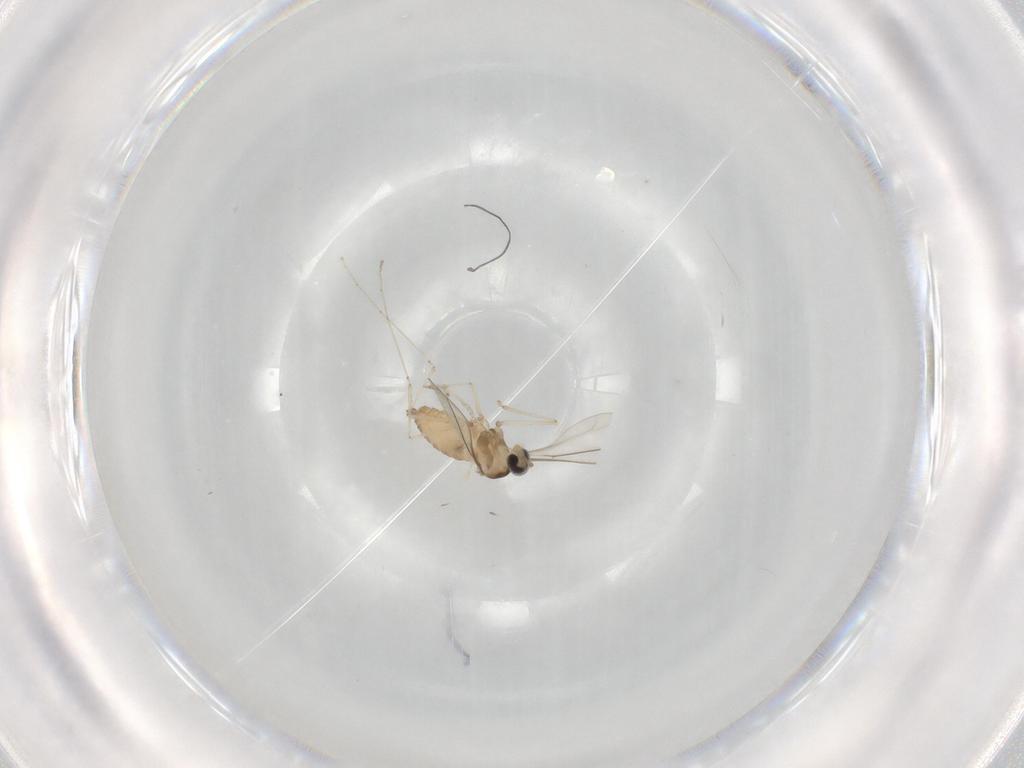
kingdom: Animalia
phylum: Arthropoda
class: Insecta
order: Diptera
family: Cecidomyiidae
